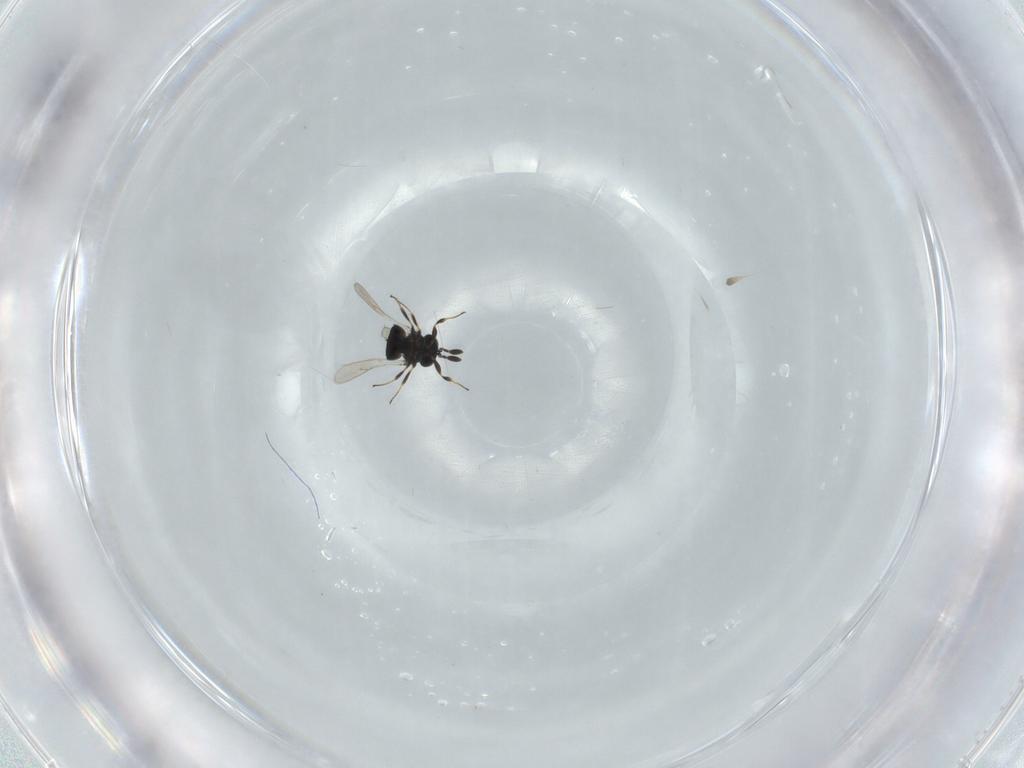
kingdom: Animalia
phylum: Arthropoda
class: Insecta
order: Hymenoptera
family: Scelionidae
